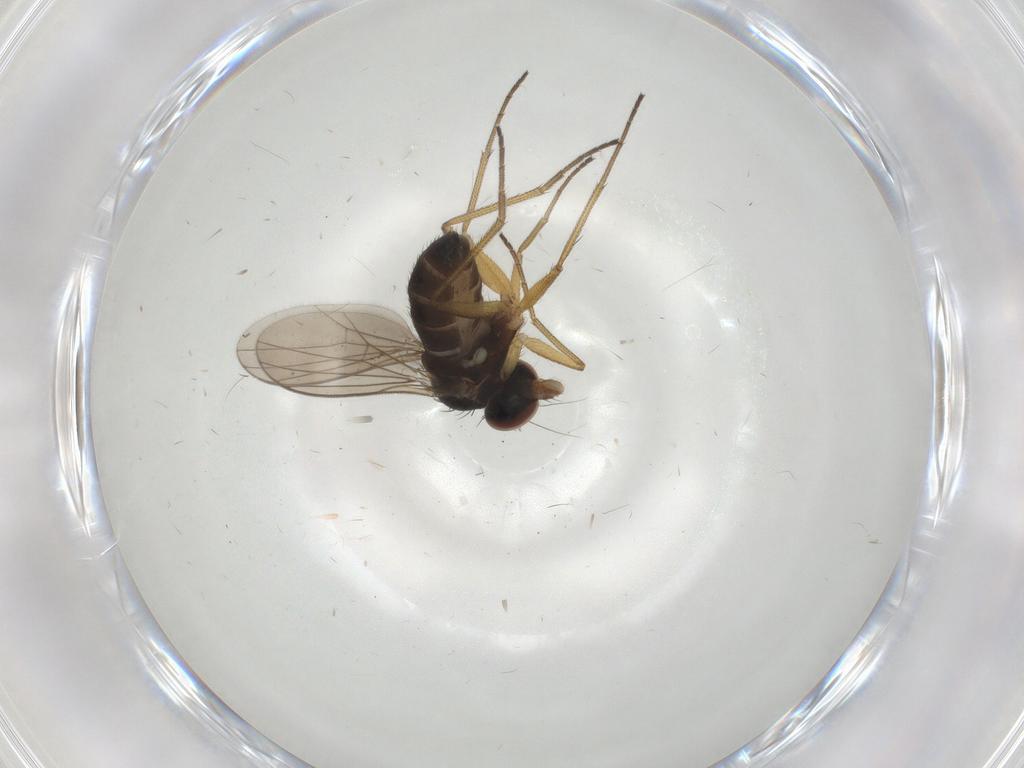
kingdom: Animalia
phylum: Arthropoda
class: Insecta
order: Diptera
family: Dolichopodidae
